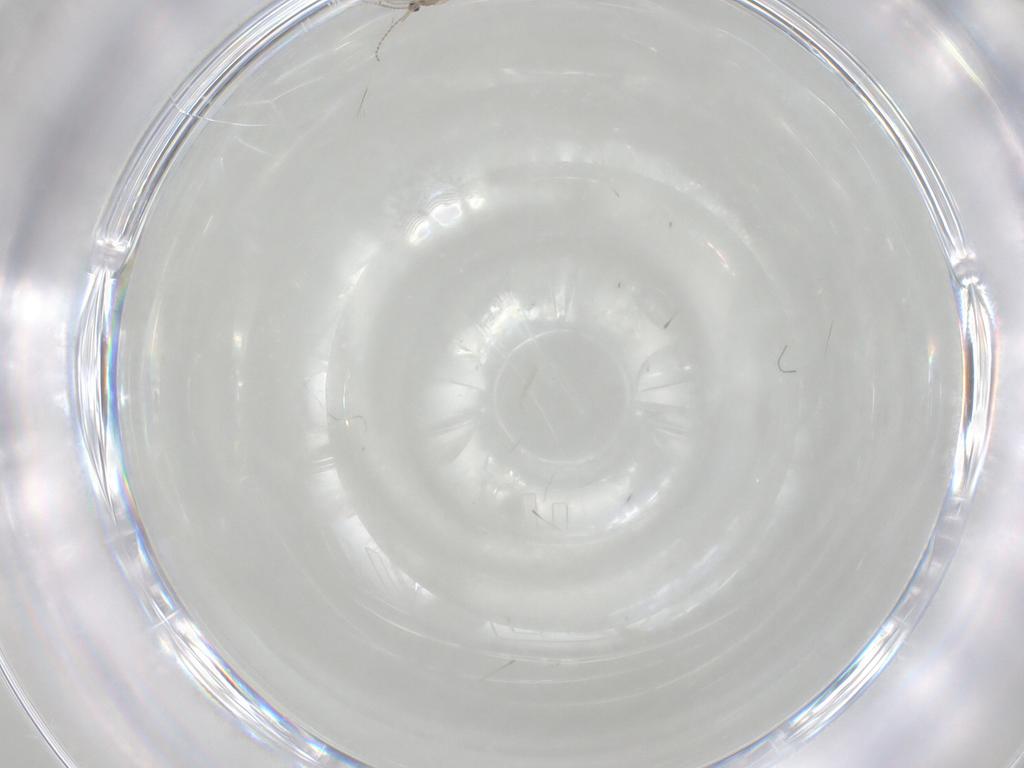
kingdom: Animalia
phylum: Arthropoda
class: Insecta
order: Diptera
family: Cecidomyiidae
